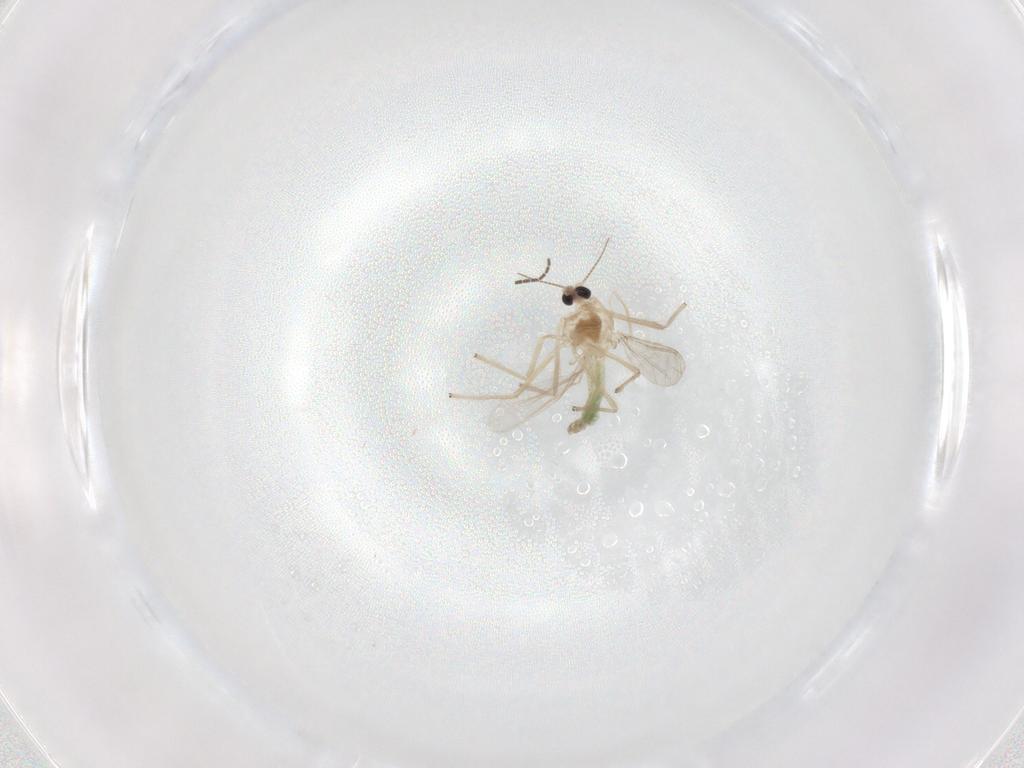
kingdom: Animalia
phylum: Arthropoda
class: Insecta
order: Diptera
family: Chironomidae
